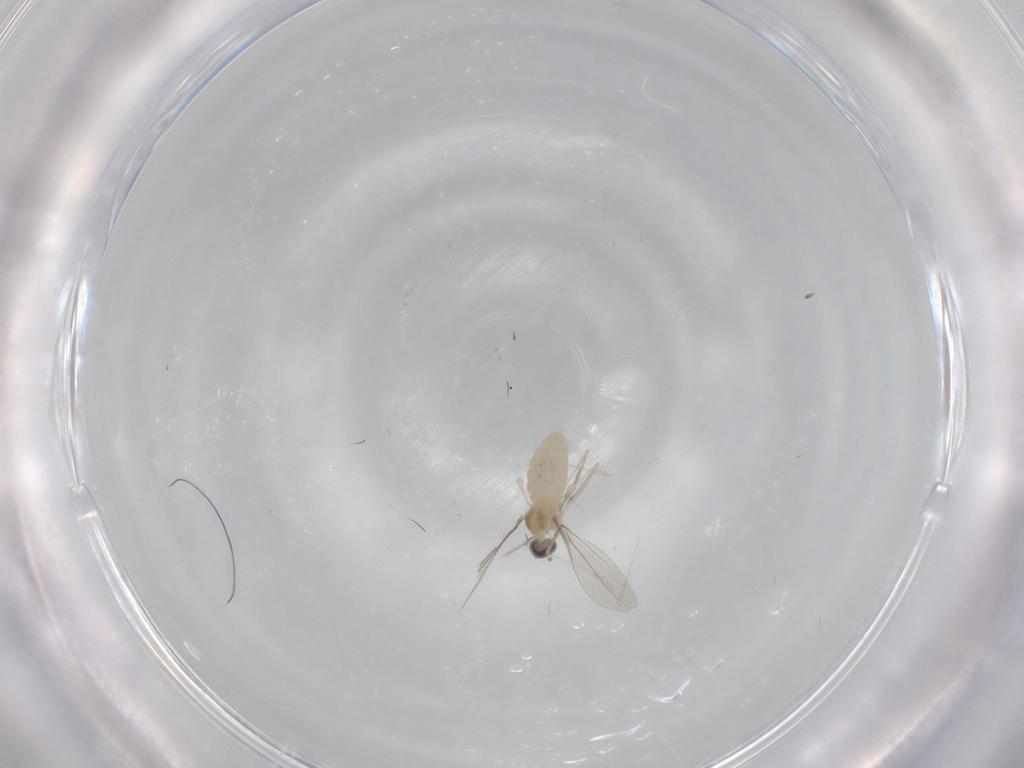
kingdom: Animalia
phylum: Arthropoda
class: Insecta
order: Diptera
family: Cecidomyiidae
